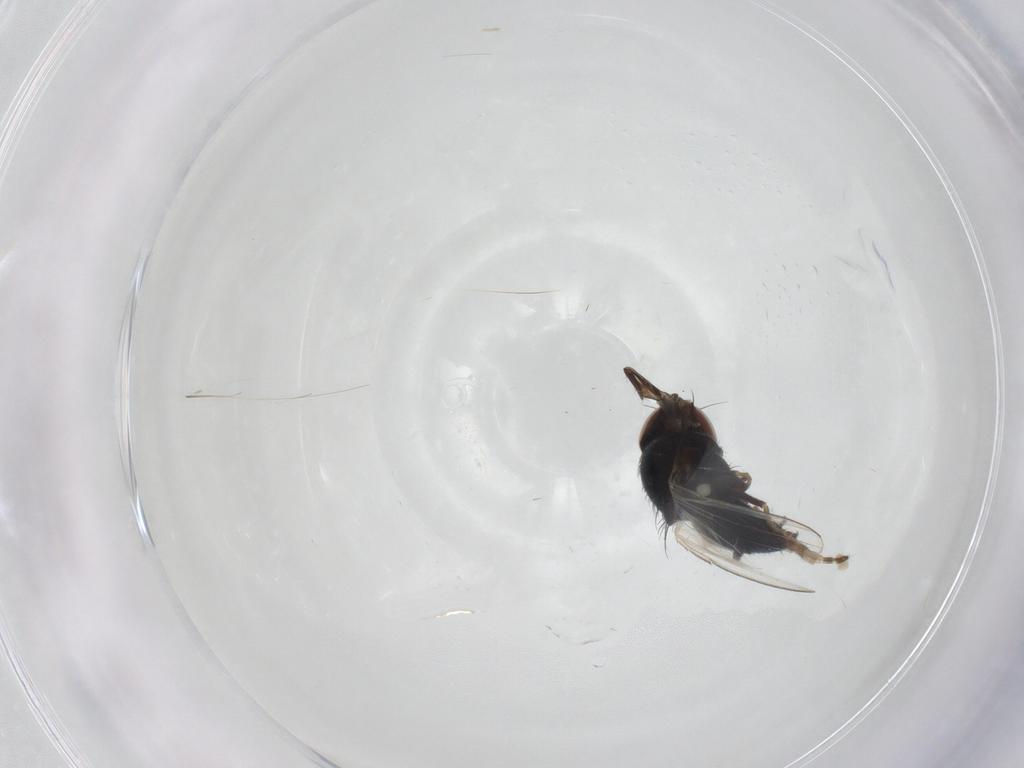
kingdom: Animalia
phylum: Arthropoda
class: Insecta
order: Diptera
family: Milichiidae
